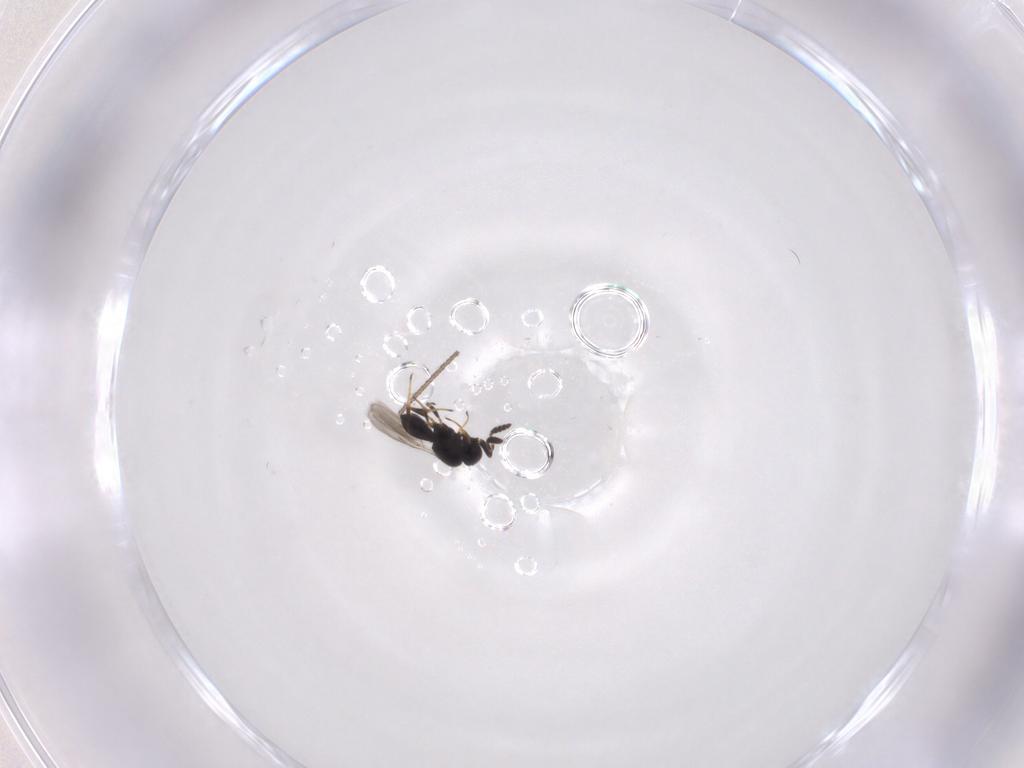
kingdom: Animalia
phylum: Arthropoda
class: Insecta
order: Hymenoptera
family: Scelionidae
